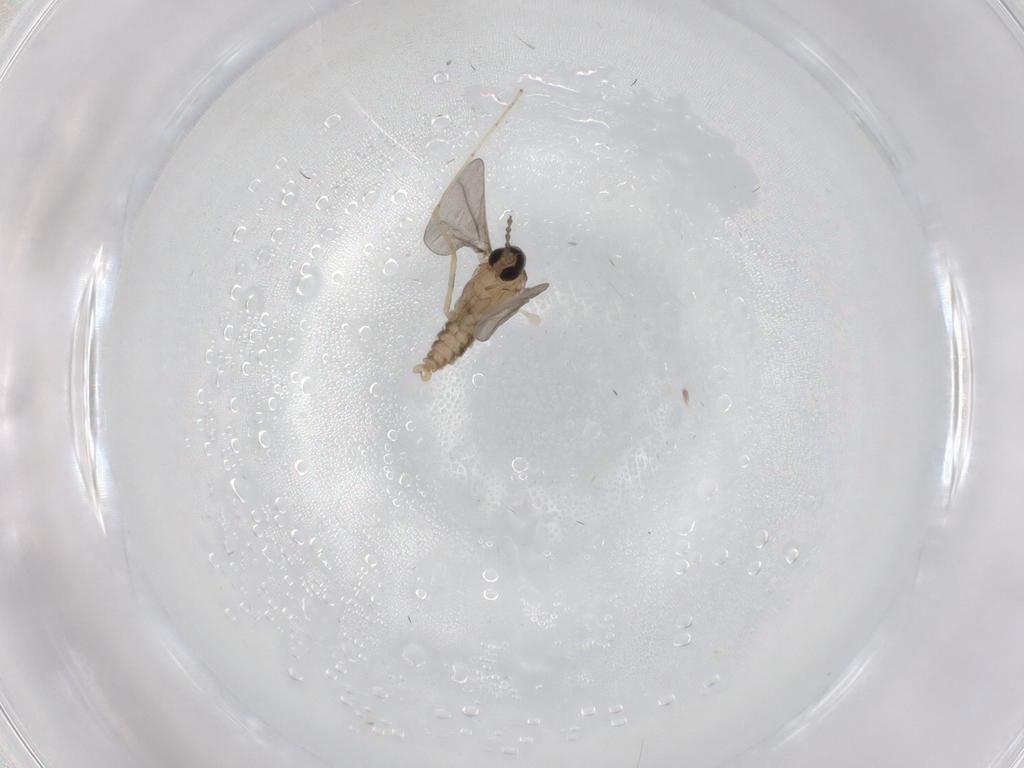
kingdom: Animalia
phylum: Arthropoda
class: Insecta
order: Diptera
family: Cecidomyiidae
